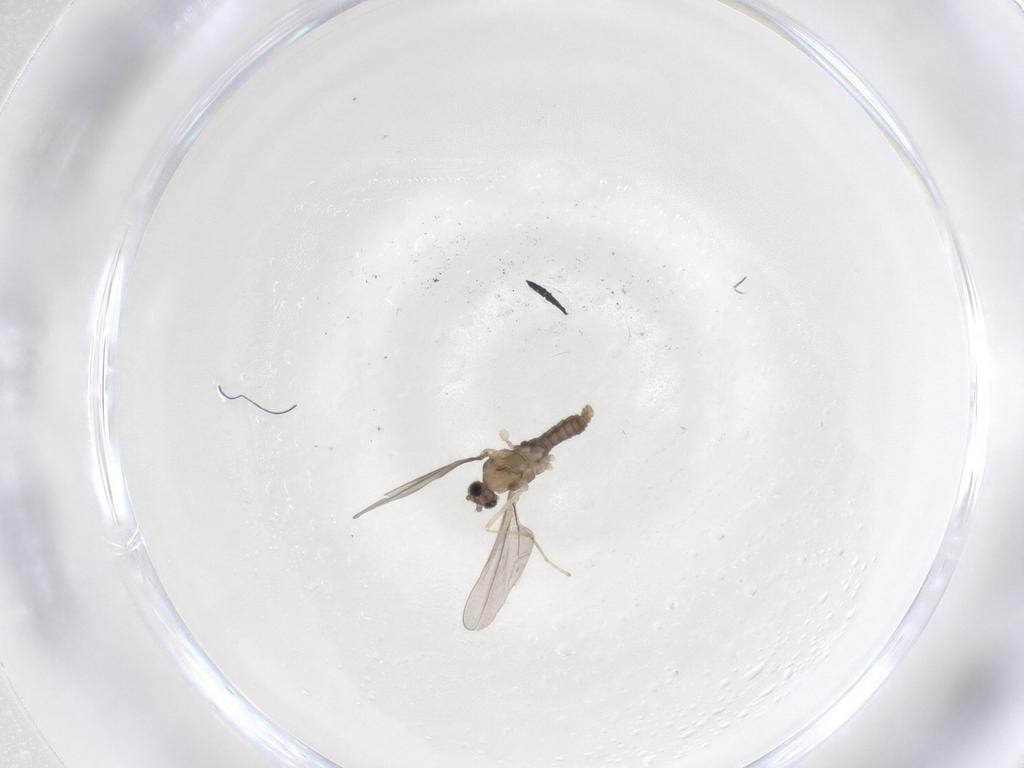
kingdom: Animalia
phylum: Arthropoda
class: Insecta
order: Diptera
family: Cecidomyiidae
